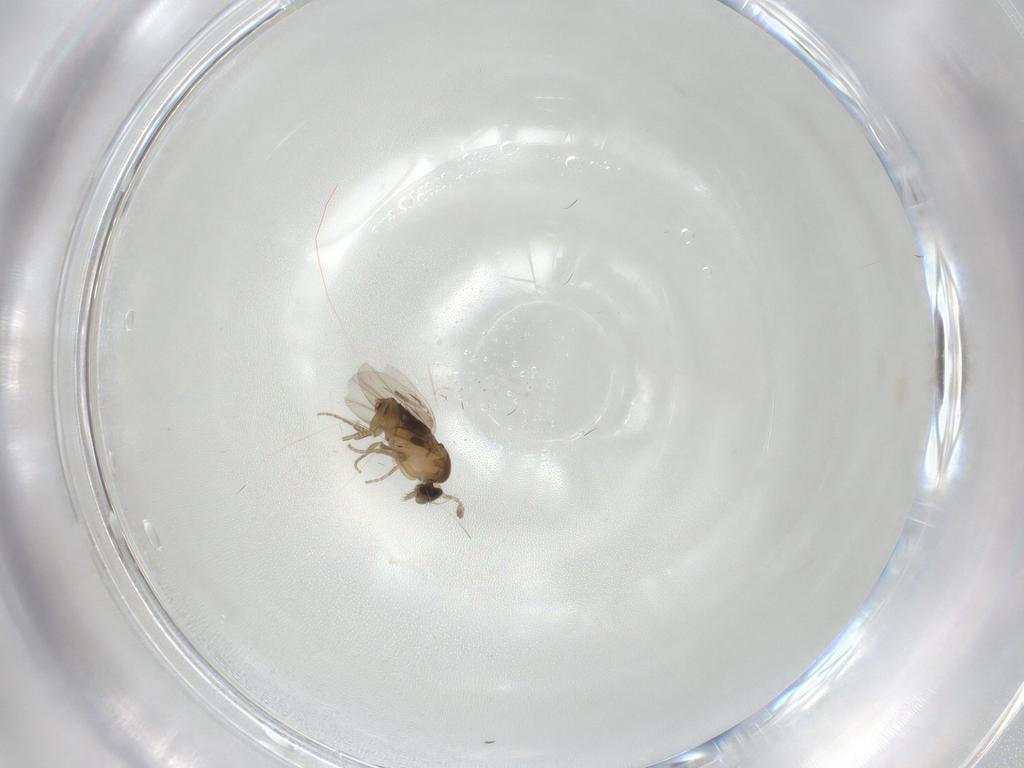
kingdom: Animalia
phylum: Arthropoda
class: Insecta
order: Diptera
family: Phoridae
